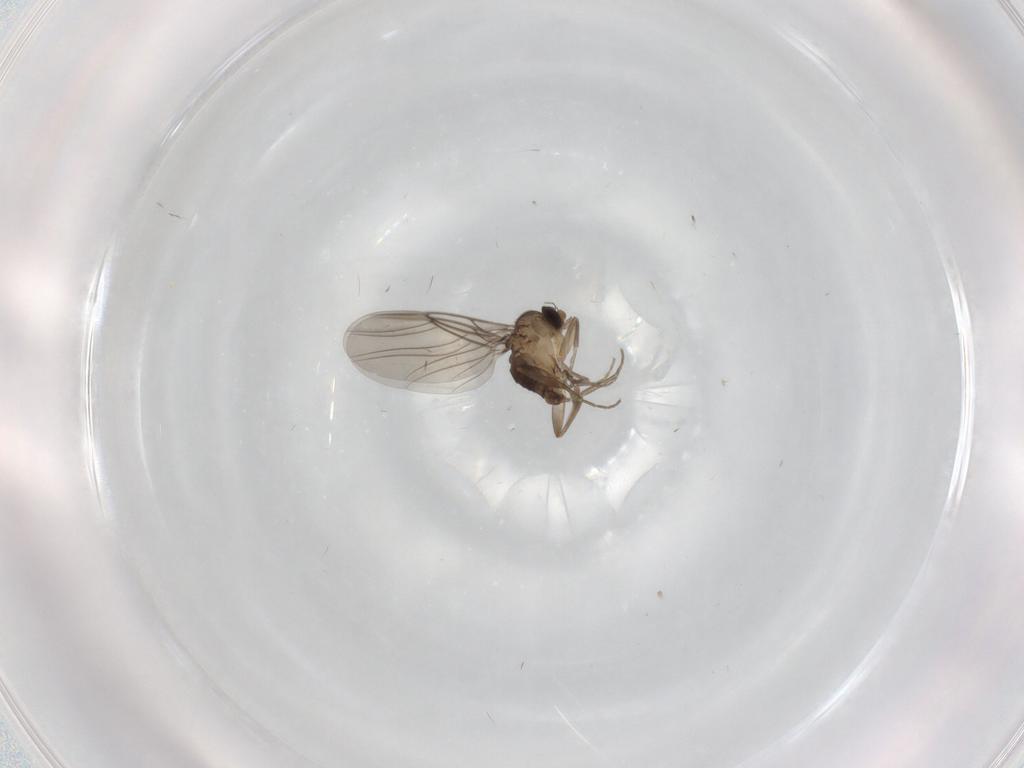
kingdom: Animalia
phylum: Arthropoda
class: Insecta
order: Diptera
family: Phoridae
